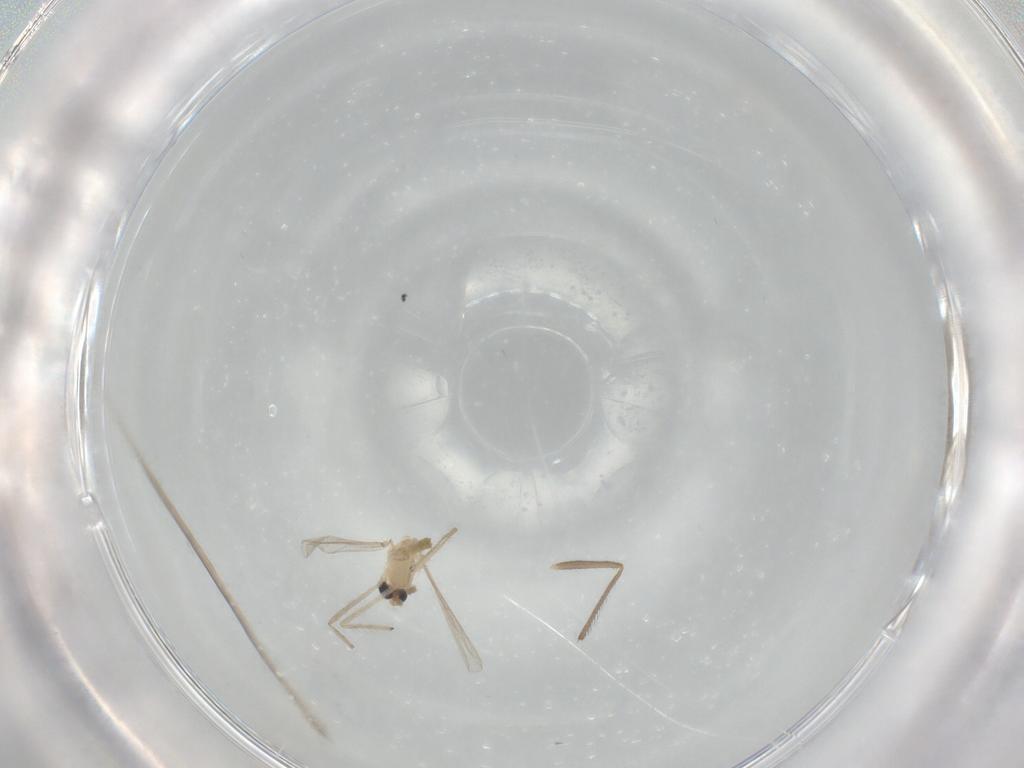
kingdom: Animalia
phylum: Arthropoda
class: Insecta
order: Diptera
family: Chironomidae
